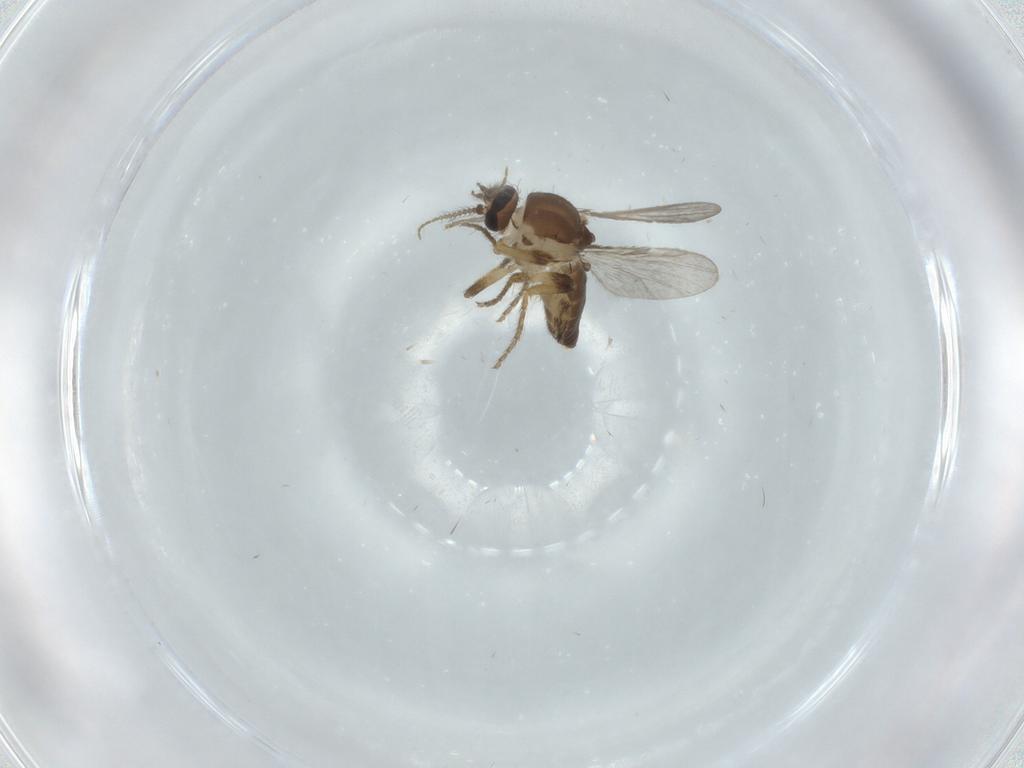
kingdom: Animalia
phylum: Arthropoda
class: Insecta
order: Diptera
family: Ceratopogonidae
